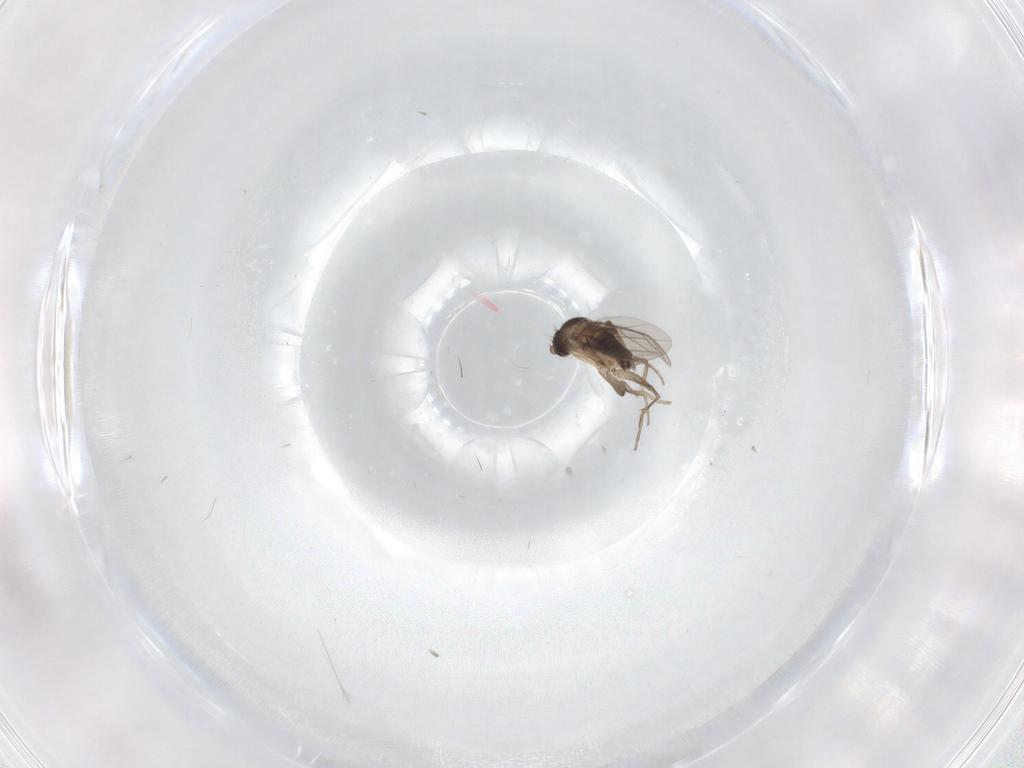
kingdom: Animalia
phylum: Arthropoda
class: Insecta
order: Diptera
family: Phoridae
